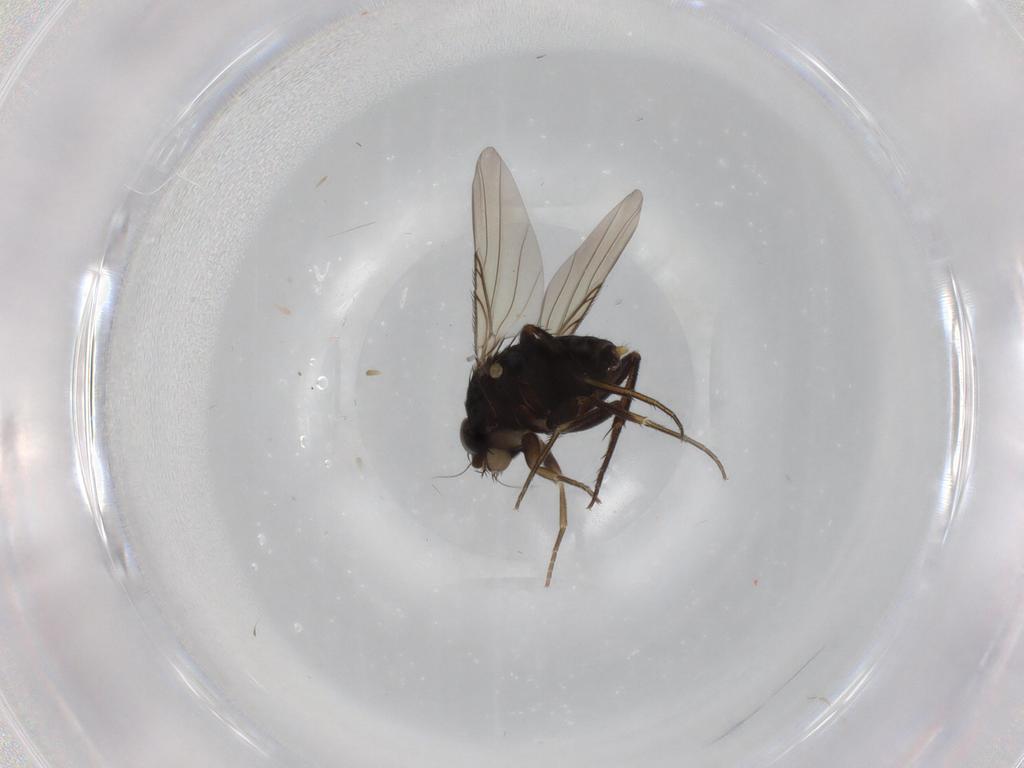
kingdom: Animalia
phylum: Arthropoda
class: Insecta
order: Diptera
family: Phoridae
